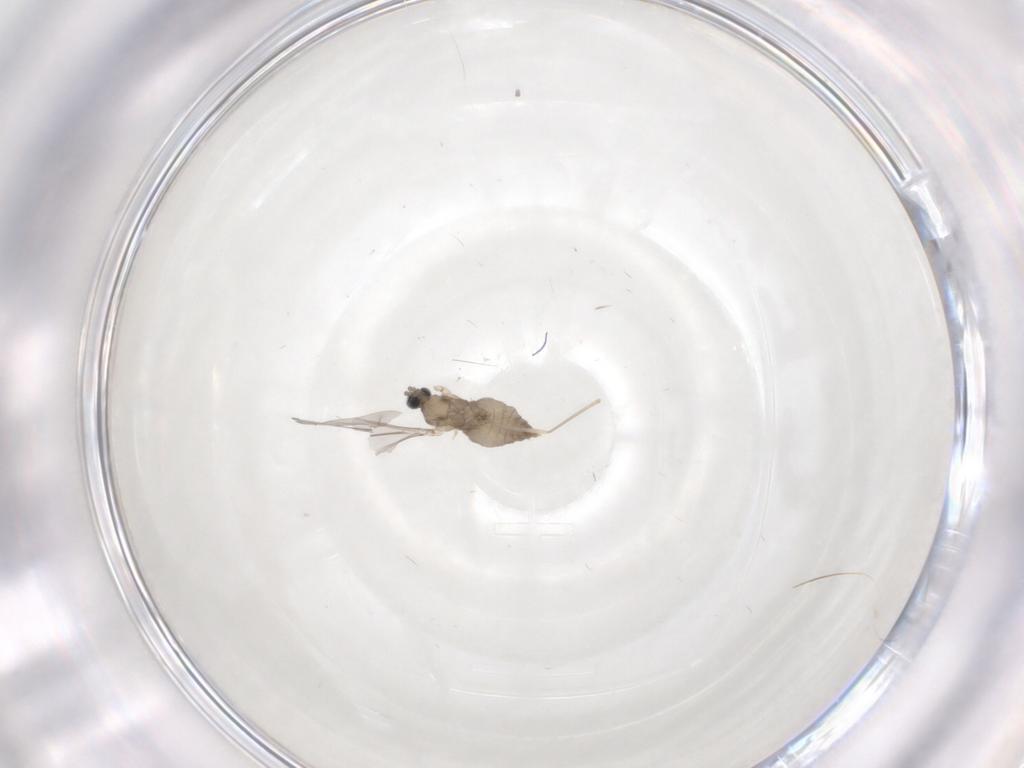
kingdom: Animalia
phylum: Arthropoda
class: Insecta
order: Diptera
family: Cecidomyiidae
